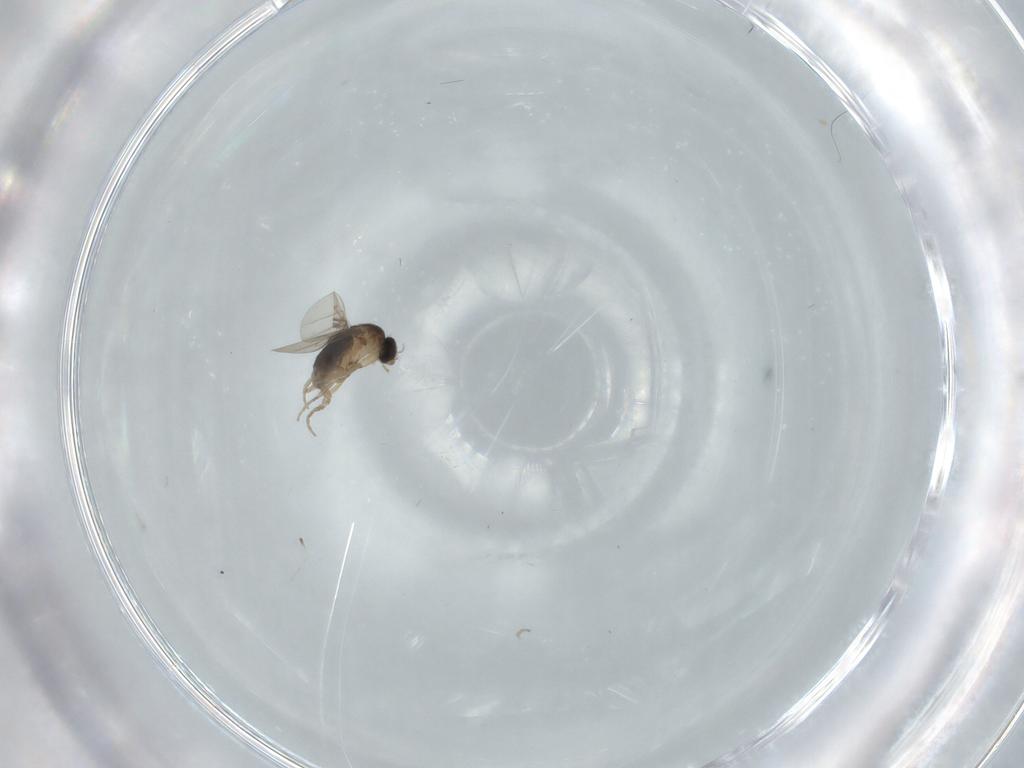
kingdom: Animalia
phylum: Arthropoda
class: Insecta
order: Diptera
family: Phoridae
